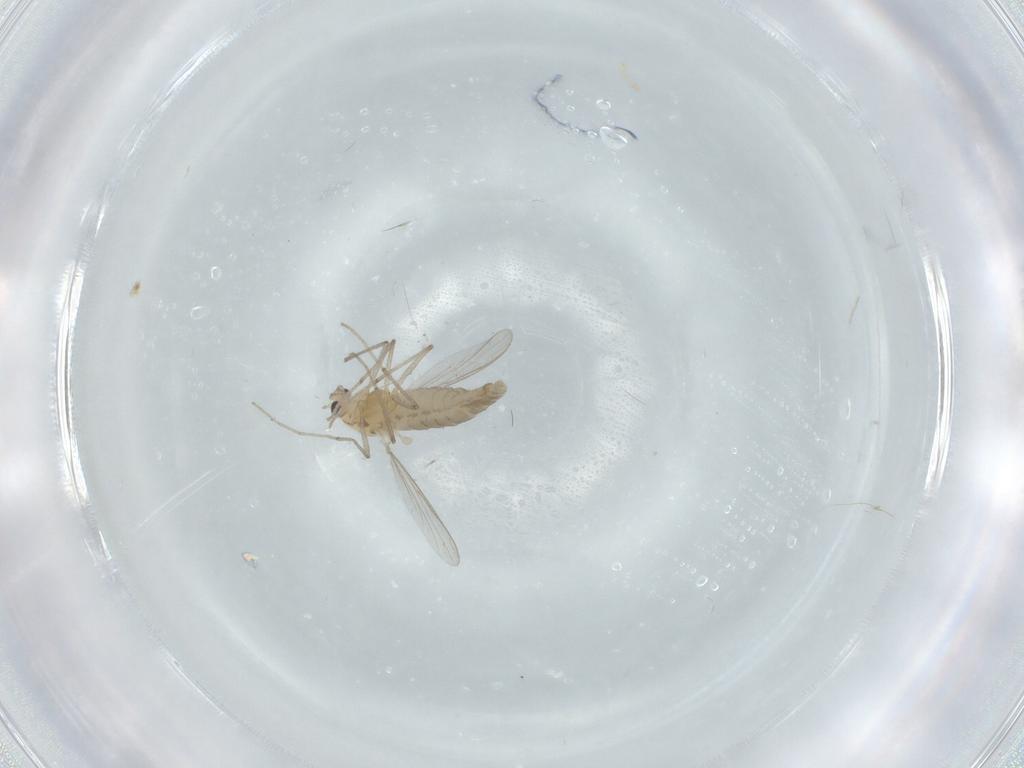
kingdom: Animalia
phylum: Arthropoda
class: Insecta
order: Diptera
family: Chironomidae
